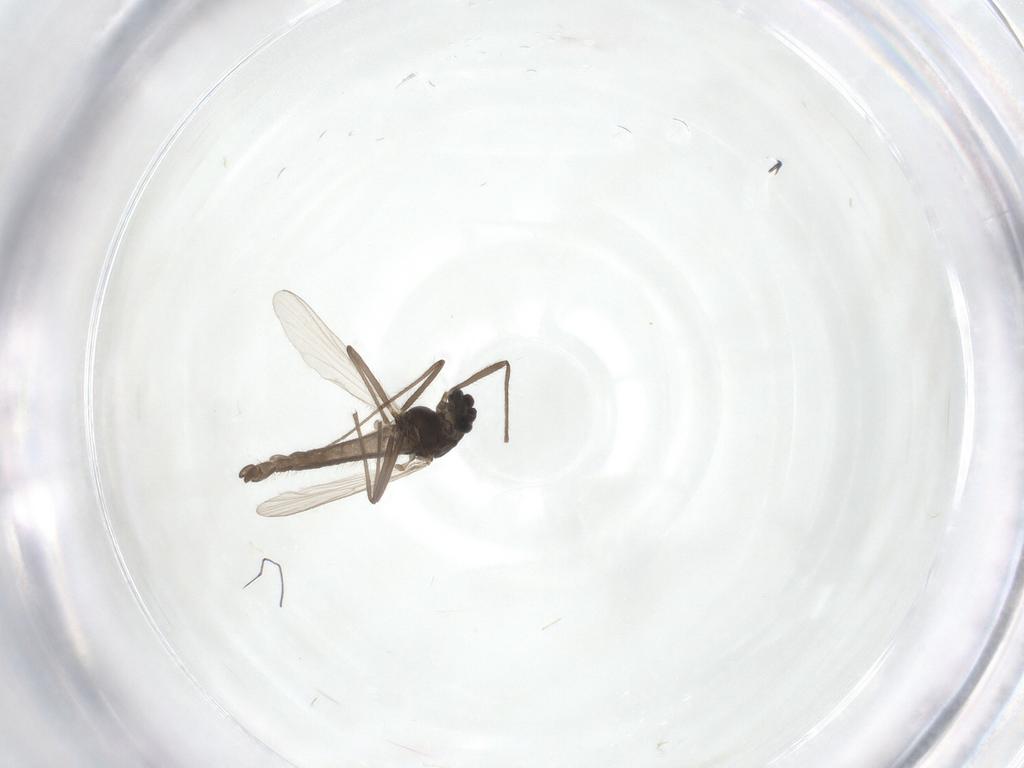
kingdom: Animalia
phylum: Arthropoda
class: Insecta
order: Diptera
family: Chironomidae
